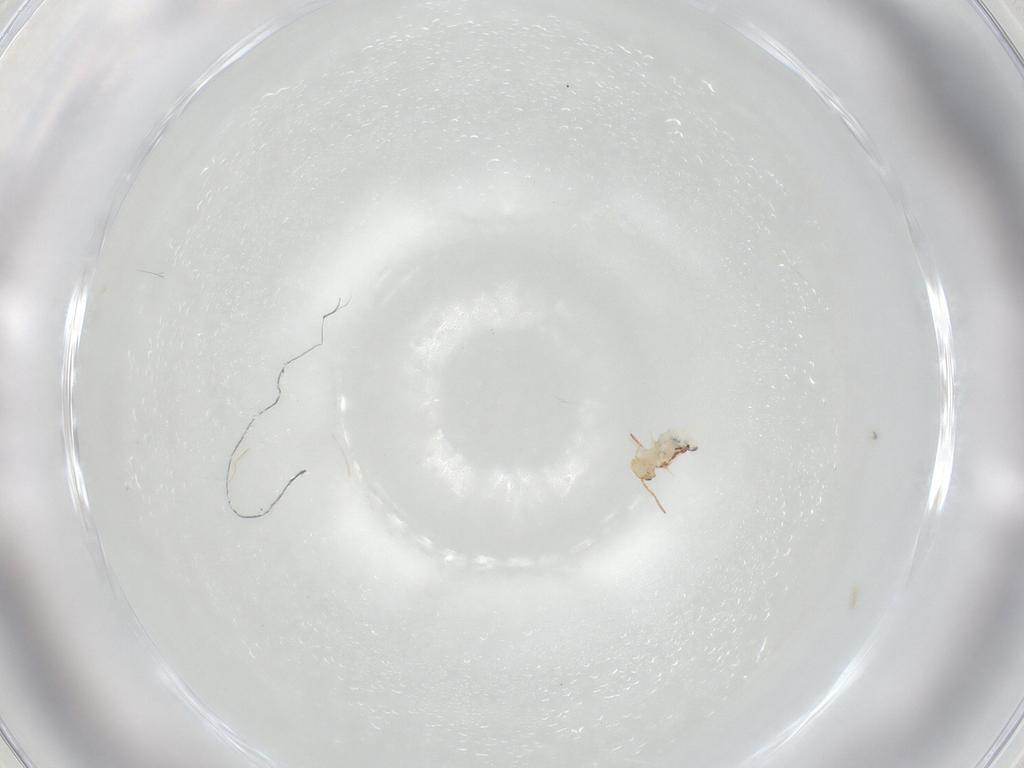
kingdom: Animalia
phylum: Arthropoda
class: Collembola
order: Symphypleona
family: Bourletiellidae
